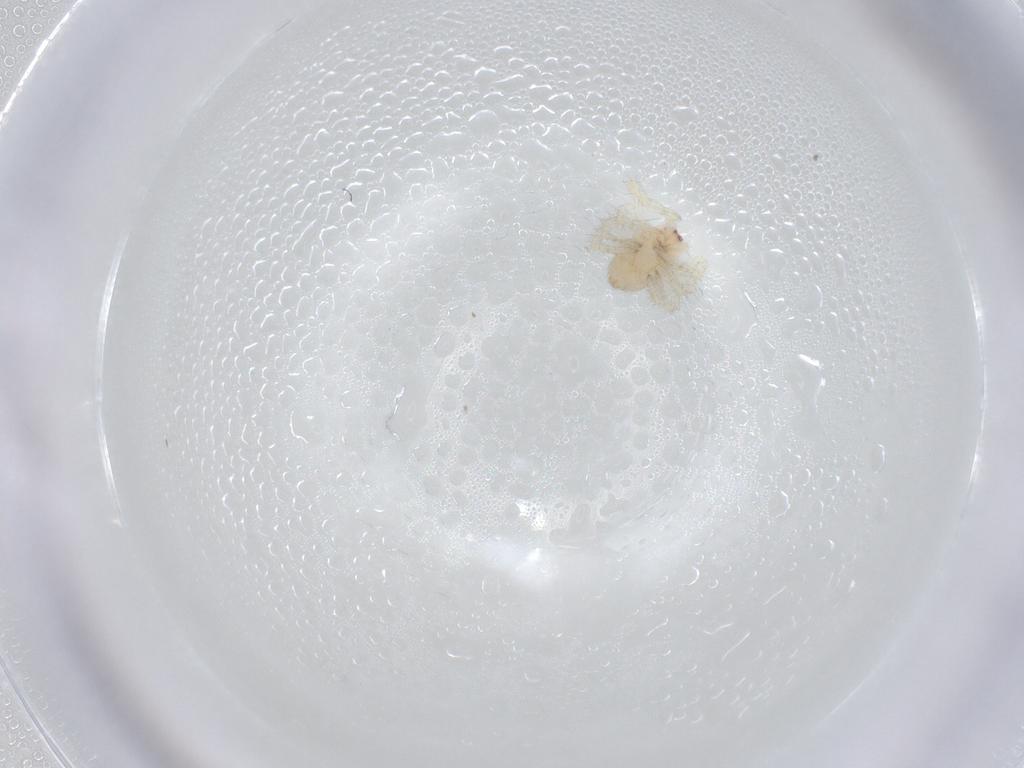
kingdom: Animalia
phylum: Arthropoda
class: Arachnida
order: Araneae
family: Theridiidae
